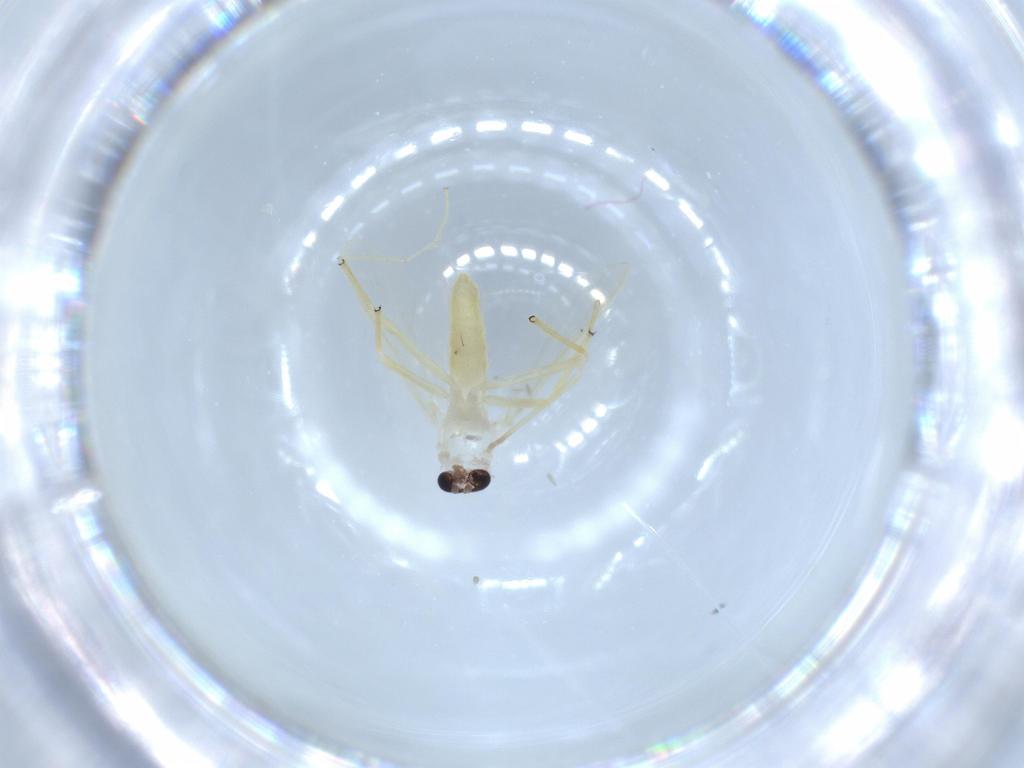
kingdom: Animalia
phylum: Arthropoda
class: Insecta
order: Diptera
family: Chironomidae
